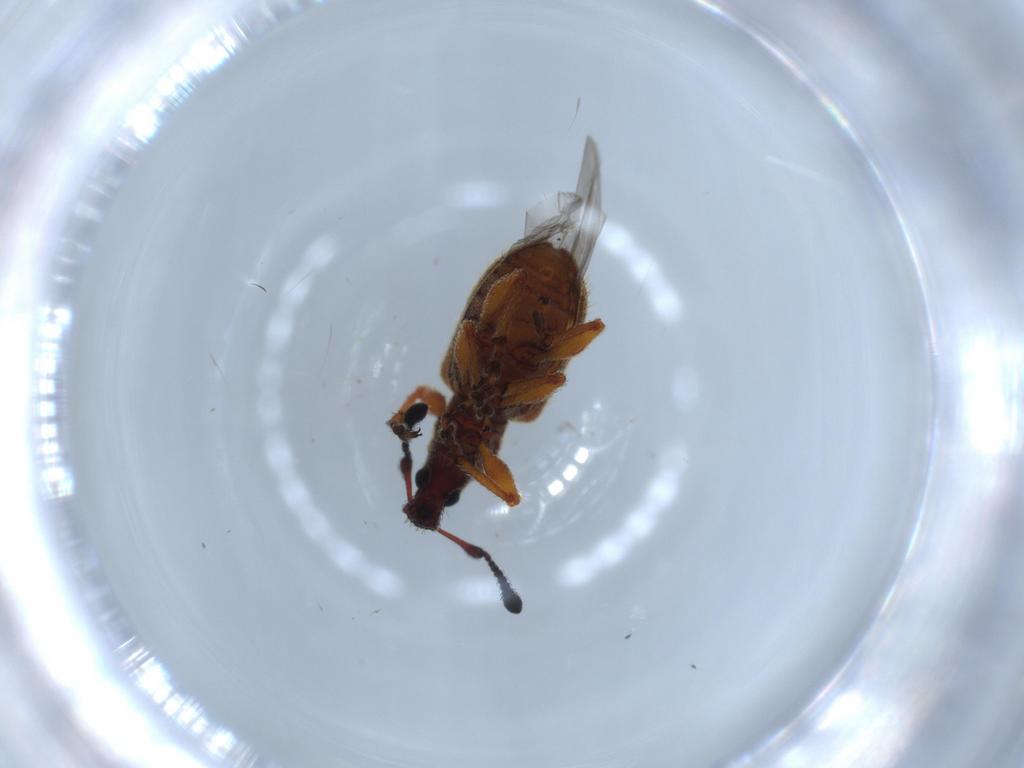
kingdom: Animalia
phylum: Arthropoda
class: Insecta
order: Coleoptera
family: Curculionidae
